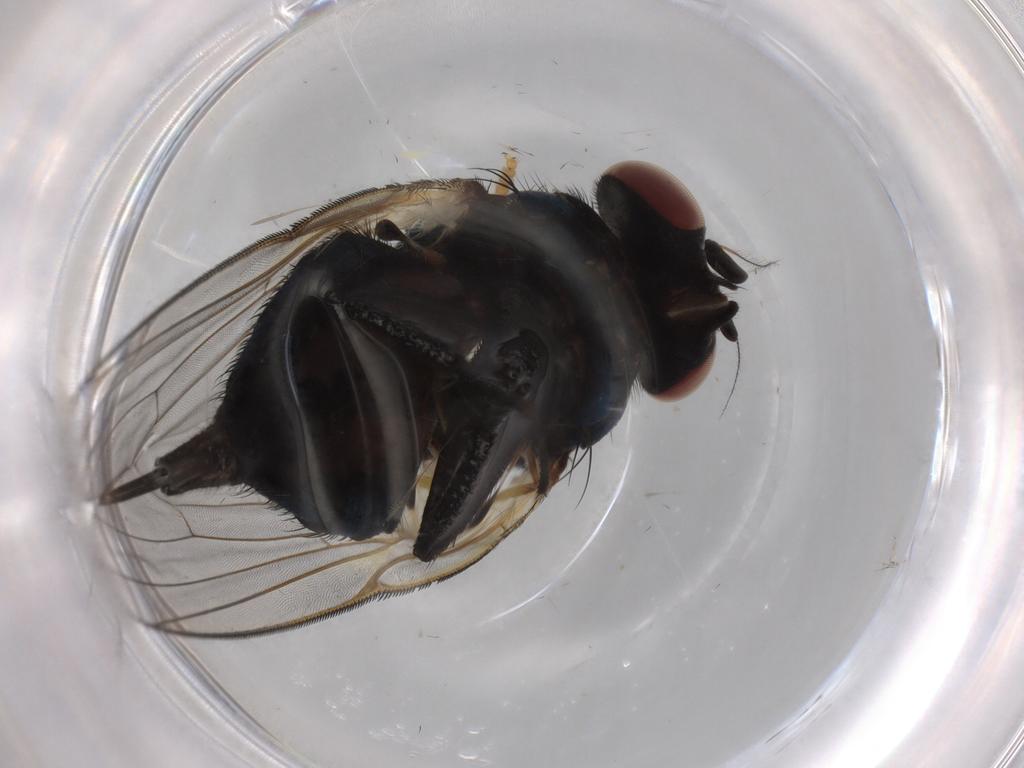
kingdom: Animalia
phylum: Arthropoda
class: Insecta
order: Diptera
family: Lonchaeidae
